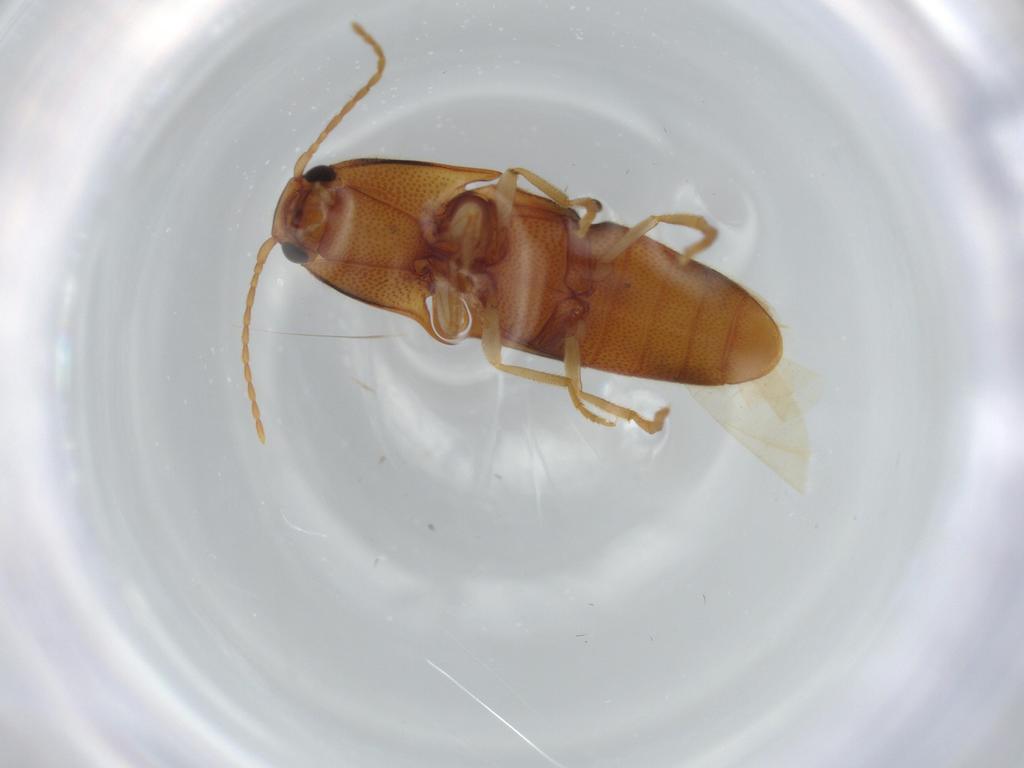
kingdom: Animalia
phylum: Arthropoda
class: Insecta
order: Coleoptera
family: Elateridae
